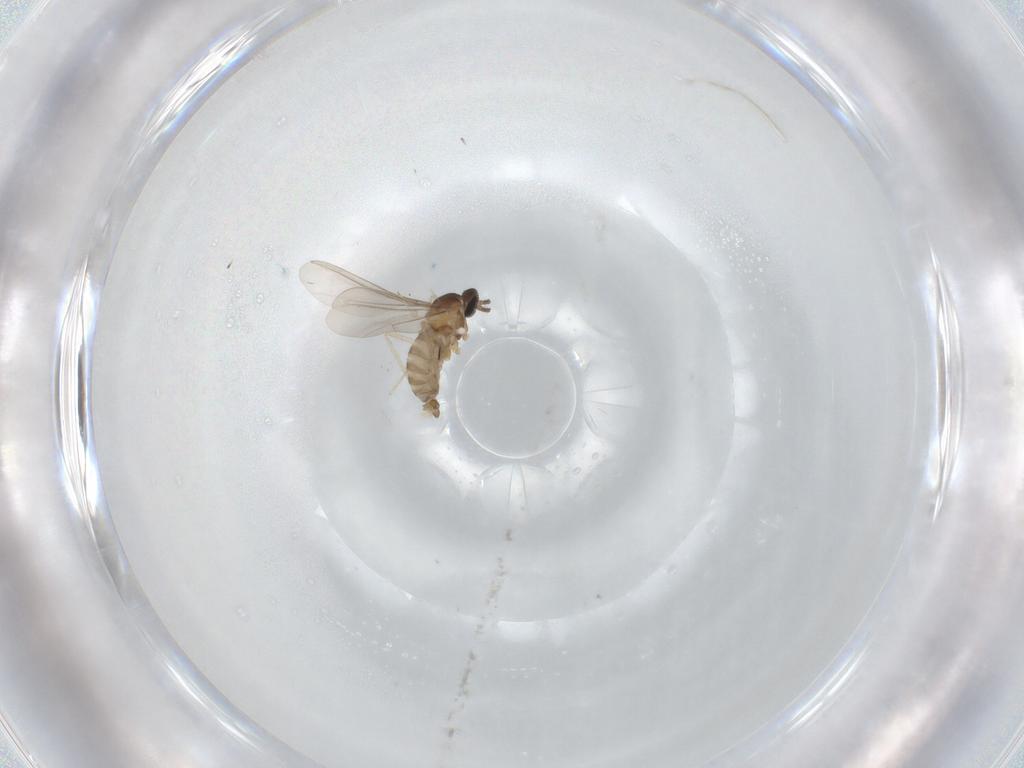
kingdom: Animalia
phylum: Arthropoda
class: Insecta
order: Diptera
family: Cecidomyiidae
